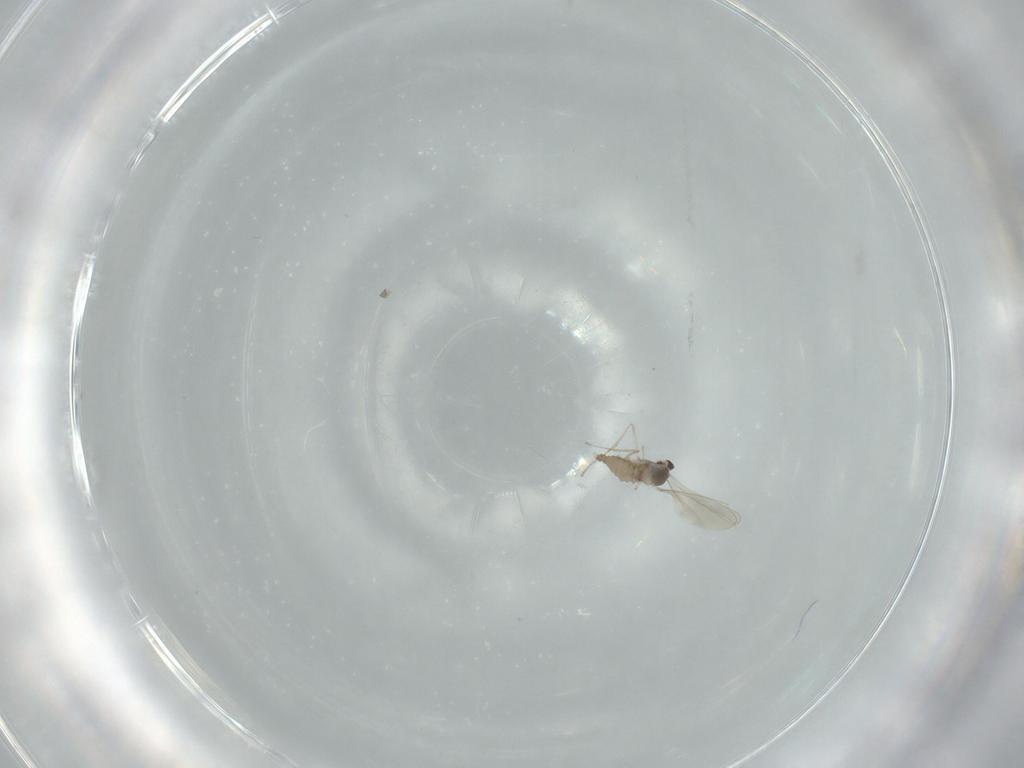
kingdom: Animalia
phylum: Arthropoda
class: Insecta
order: Diptera
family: Cecidomyiidae
